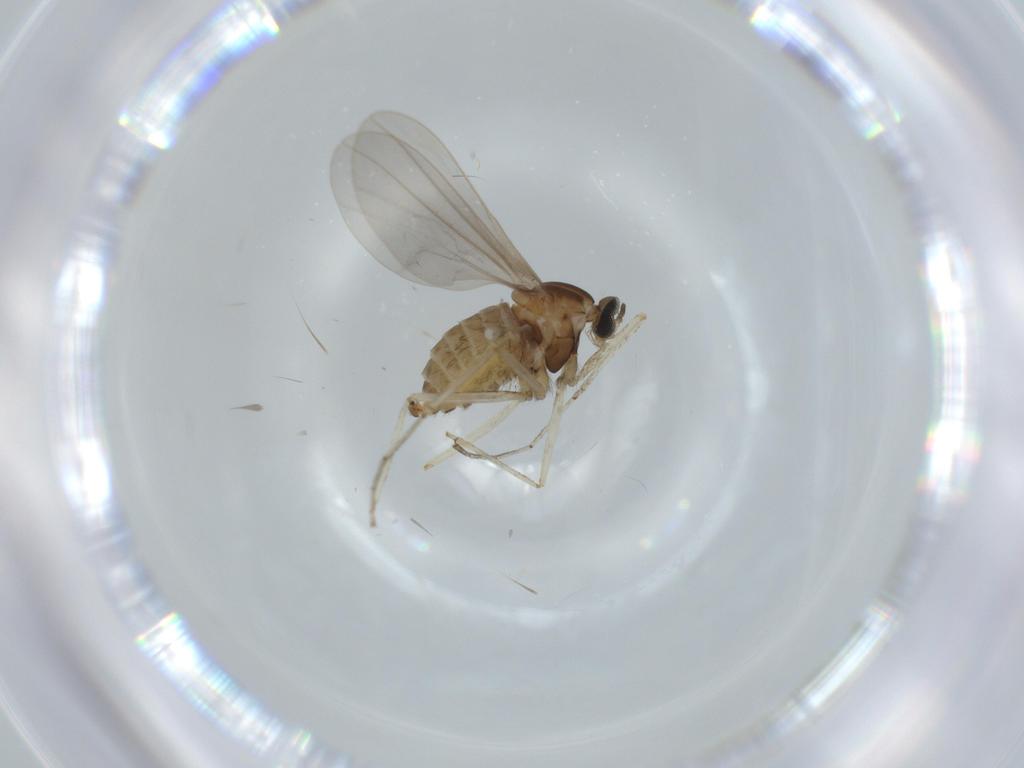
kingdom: Animalia
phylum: Arthropoda
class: Insecta
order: Diptera
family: Cecidomyiidae
